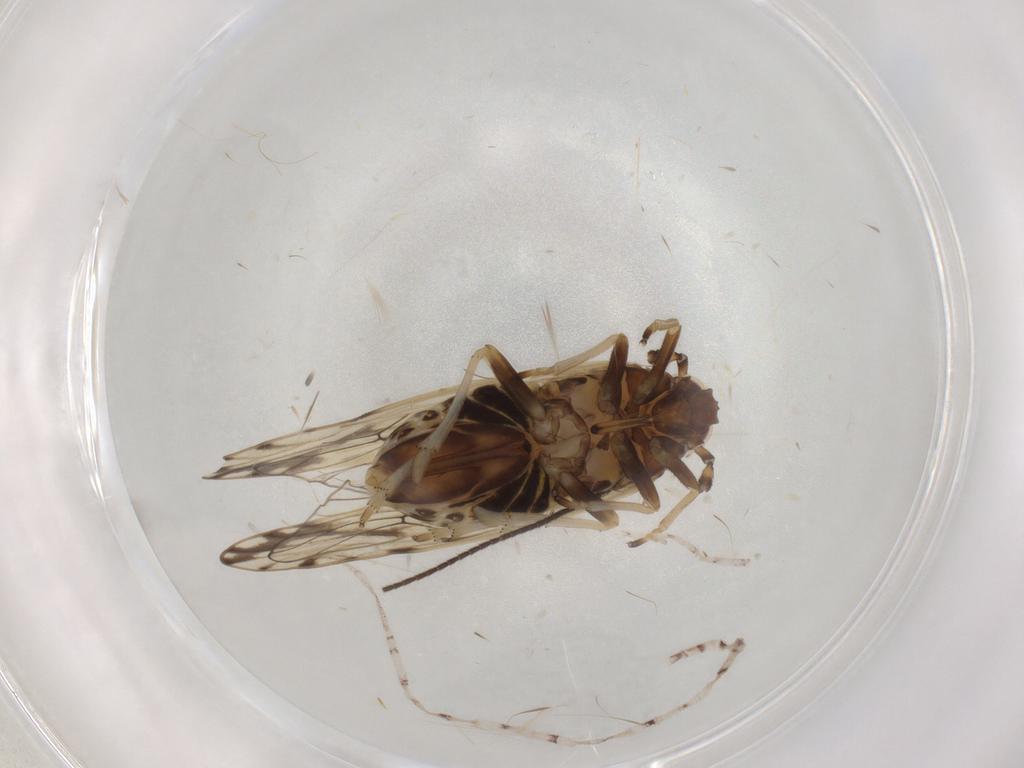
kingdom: Animalia
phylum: Arthropoda
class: Insecta
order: Hemiptera
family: Delphacidae
